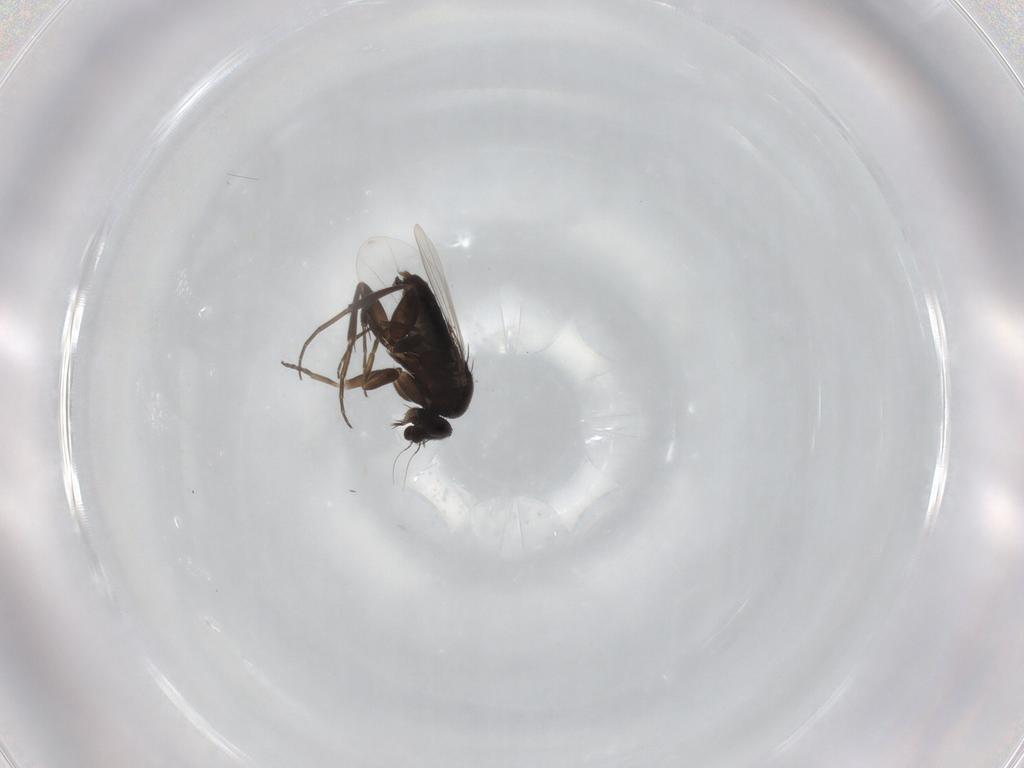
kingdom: Animalia
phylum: Arthropoda
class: Insecta
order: Diptera
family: Phoridae
